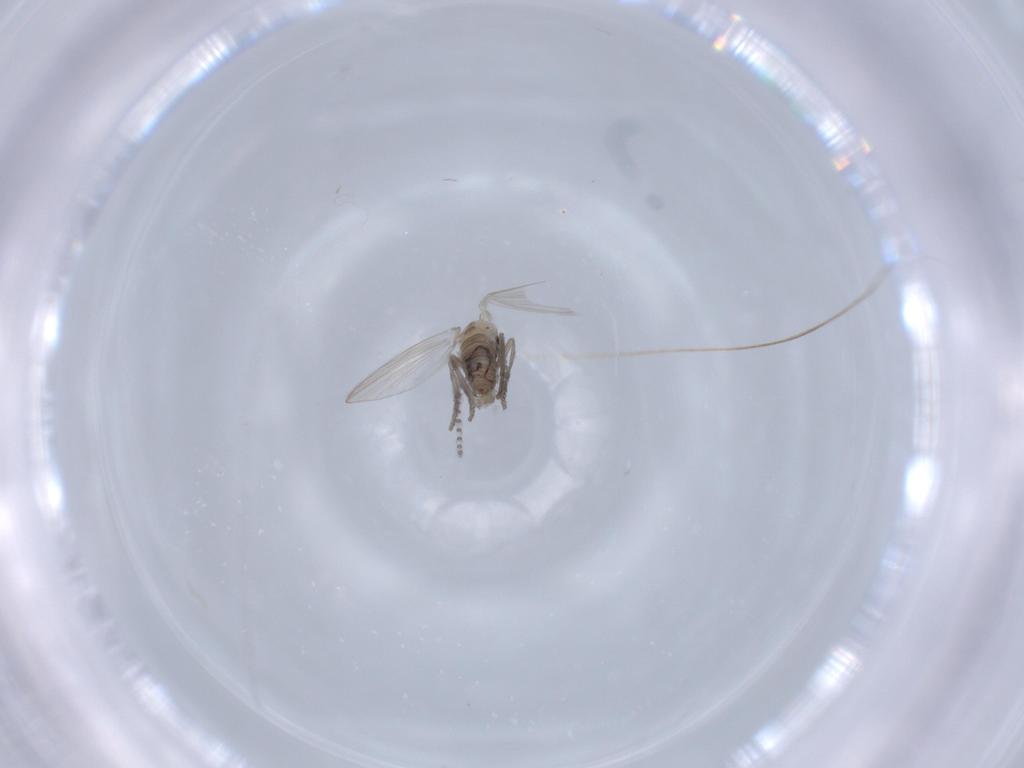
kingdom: Animalia
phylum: Arthropoda
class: Insecta
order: Diptera
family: Psychodidae
